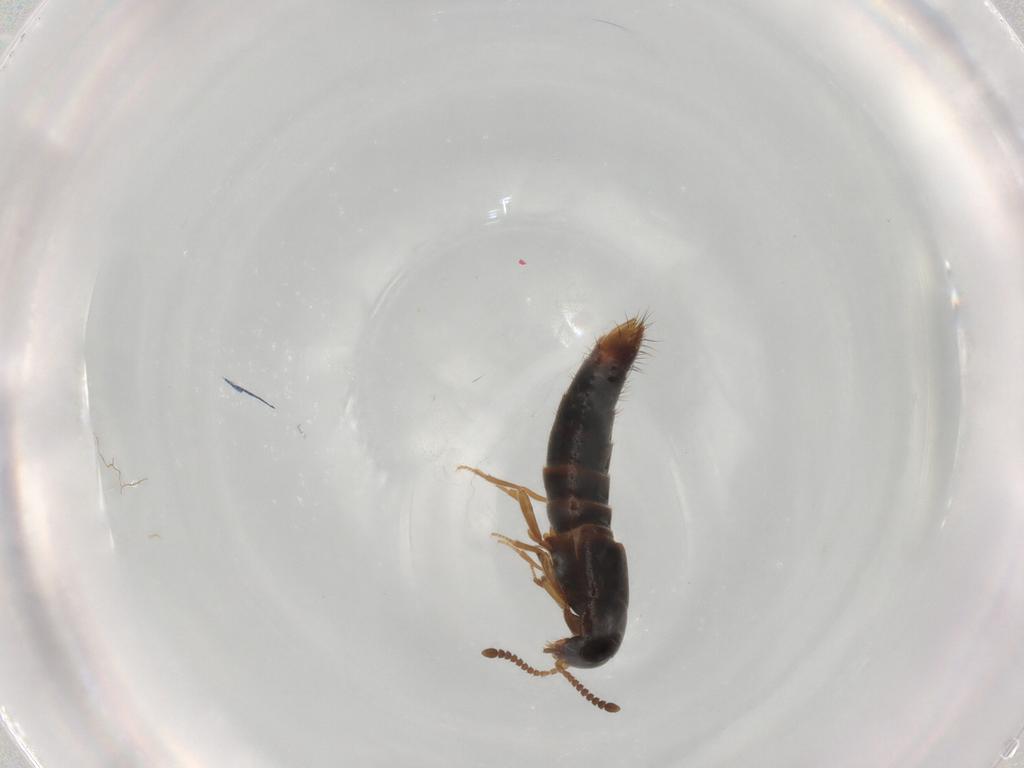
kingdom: Animalia
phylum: Arthropoda
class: Insecta
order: Coleoptera
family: Staphylinidae
